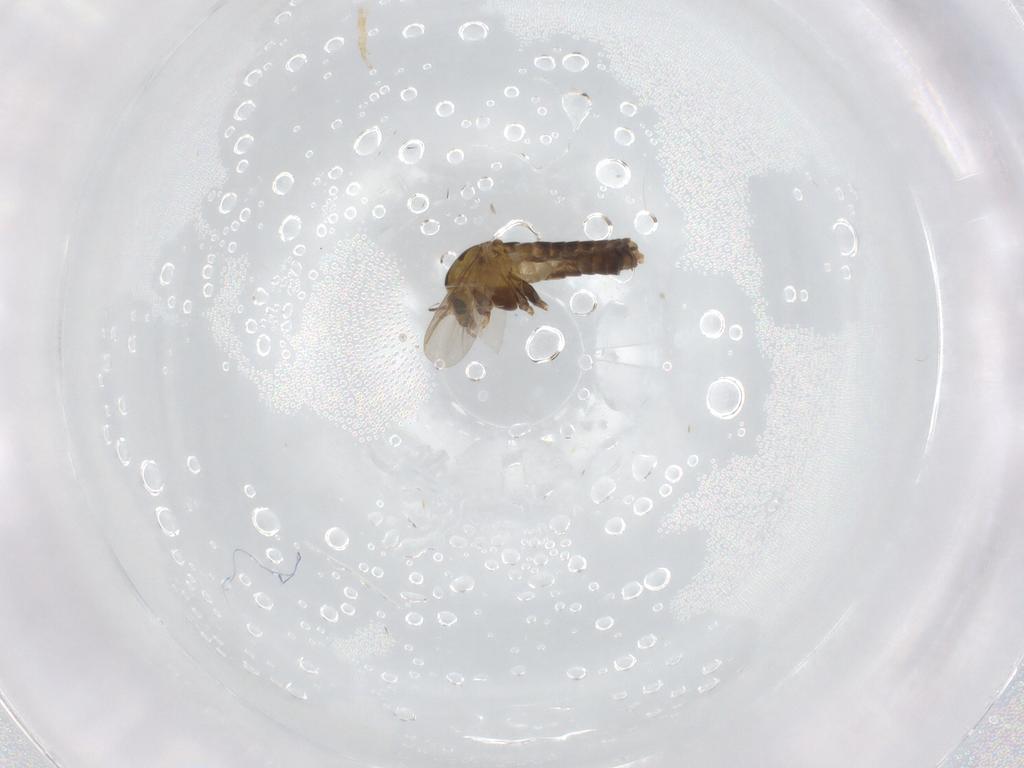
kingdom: Animalia
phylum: Arthropoda
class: Insecta
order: Diptera
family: Chironomidae
